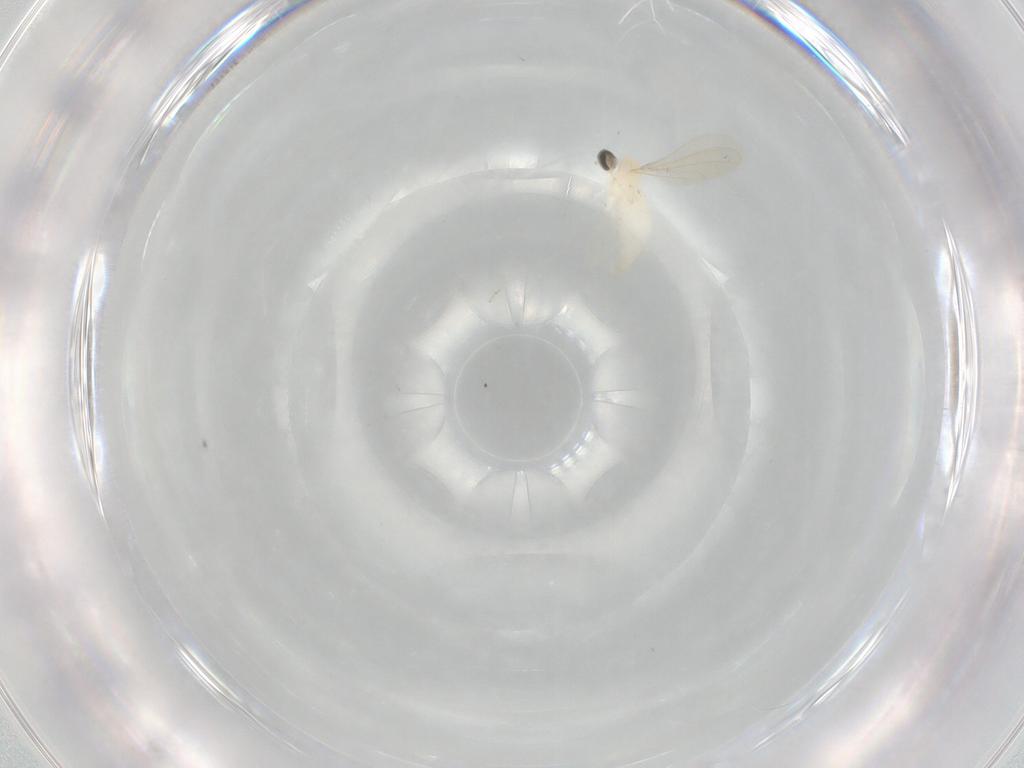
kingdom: Animalia
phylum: Arthropoda
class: Insecta
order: Diptera
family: Cecidomyiidae
